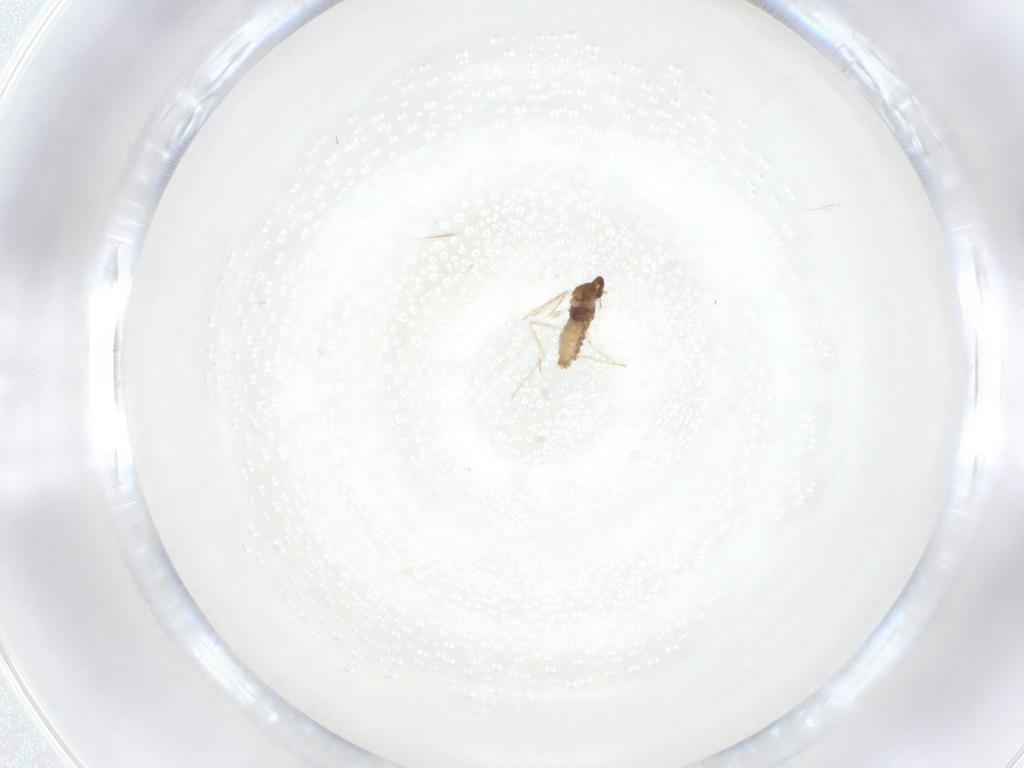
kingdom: Animalia
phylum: Arthropoda
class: Insecta
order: Diptera
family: Cecidomyiidae
